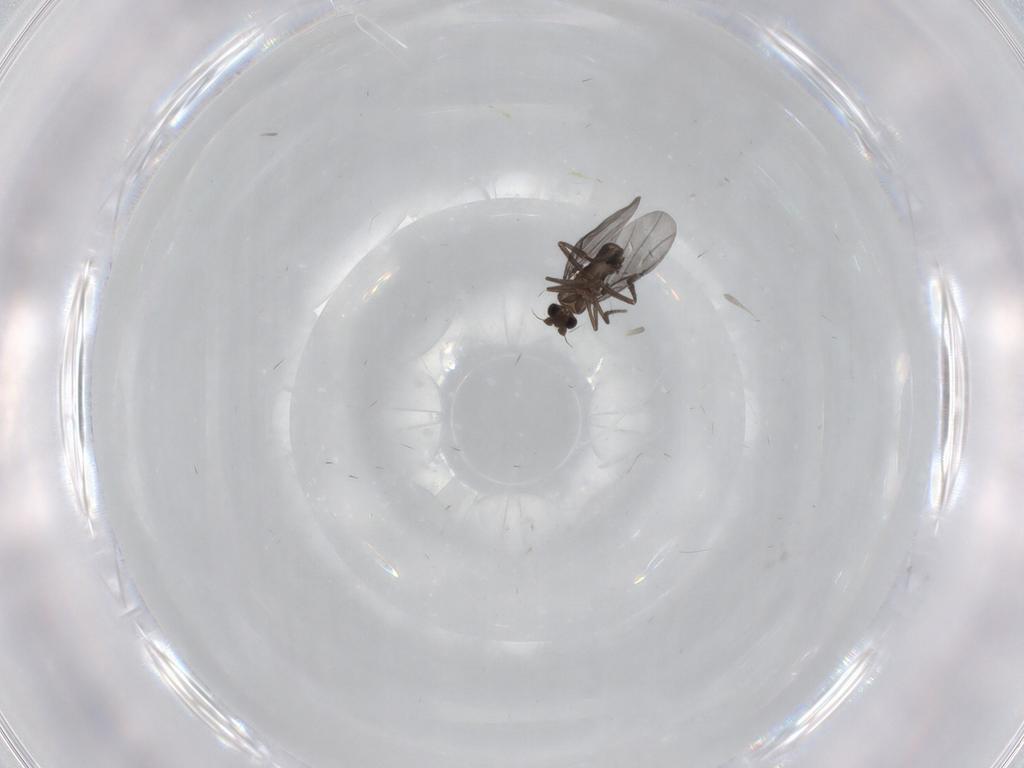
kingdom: Animalia
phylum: Arthropoda
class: Insecta
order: Diptera
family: Phoridae
